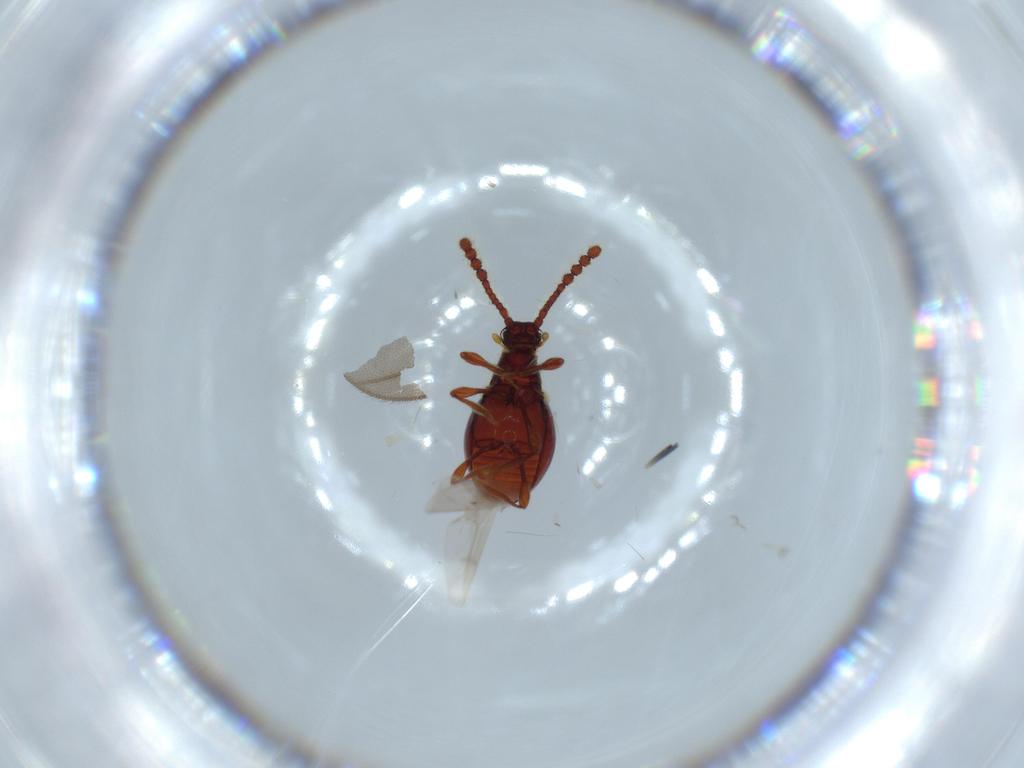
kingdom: Animalia
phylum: Arthropoda
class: Insecta
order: Coleoptera
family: Staphylinidae
